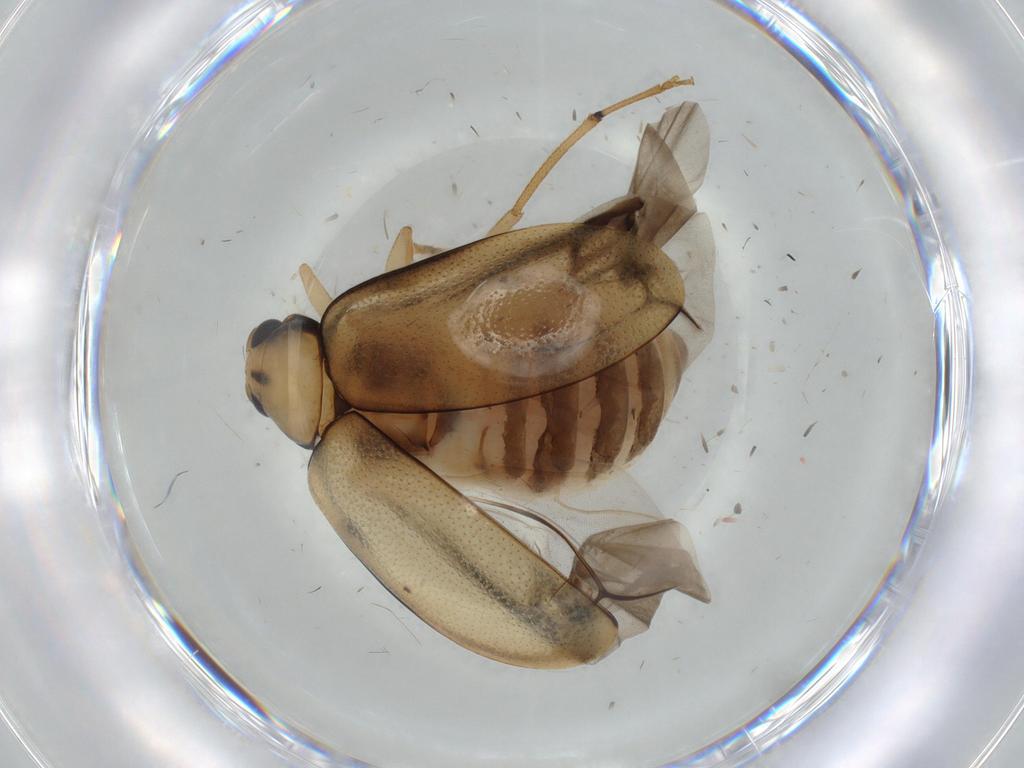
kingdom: Animalia
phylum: Arthropoda
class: Insecta
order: Coleoptera
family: Chrysomelidae
